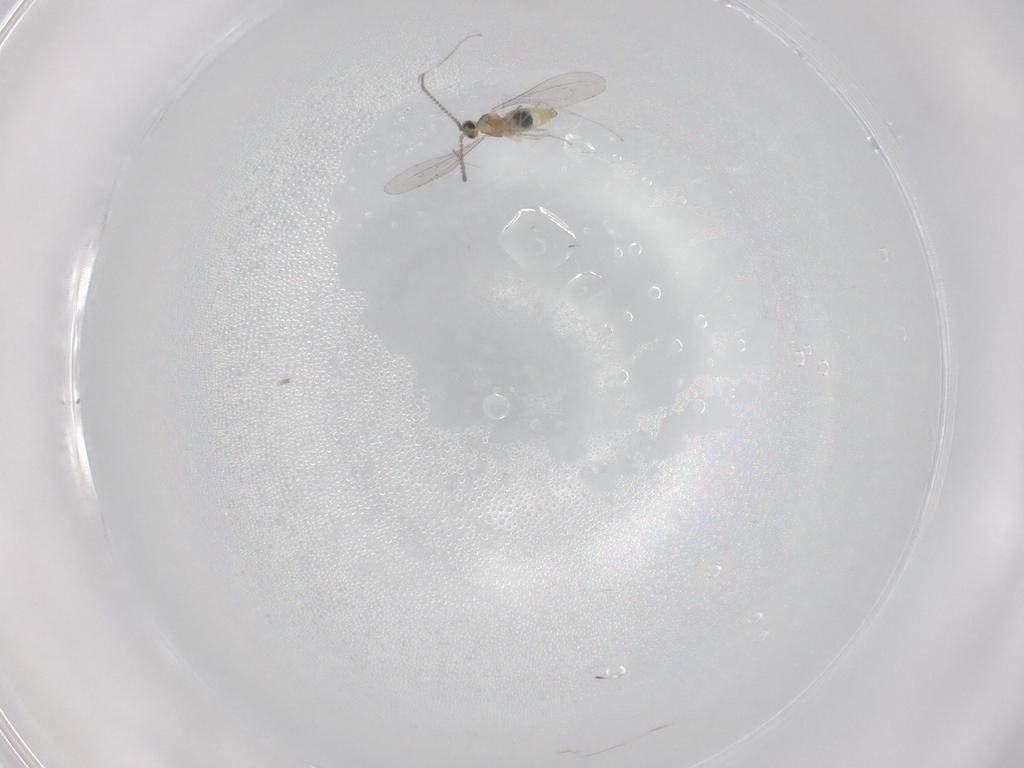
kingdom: Animalia
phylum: Arthropoda
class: Insecta
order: Diptera
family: Cecidomyiidae
